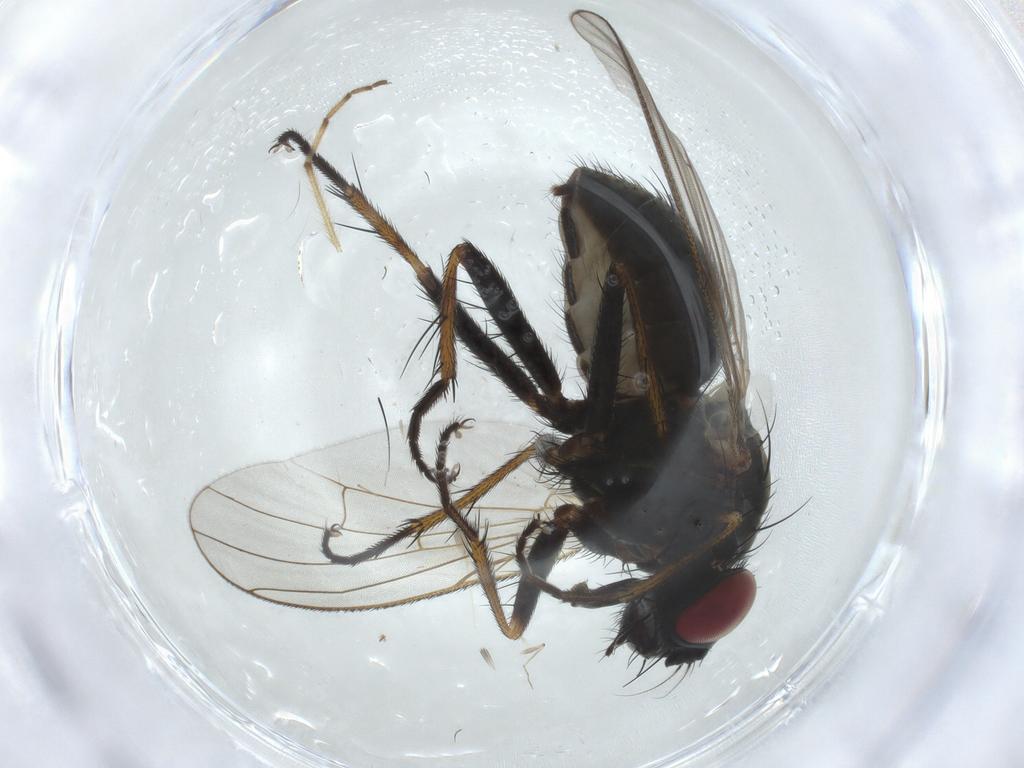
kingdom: Animalia
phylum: Arthropoda
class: Insecta
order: Diptera
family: Muscidae
